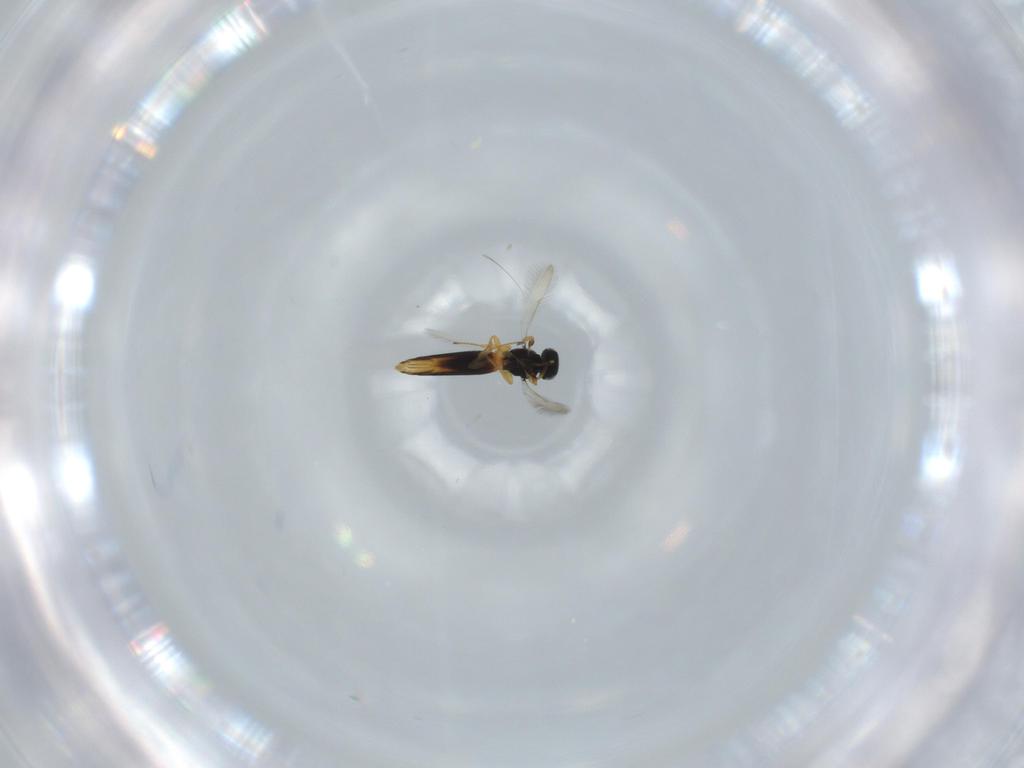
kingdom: Animalia
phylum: Arthropoda
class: Insecta
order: Hymenoptera
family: Scelionidae
